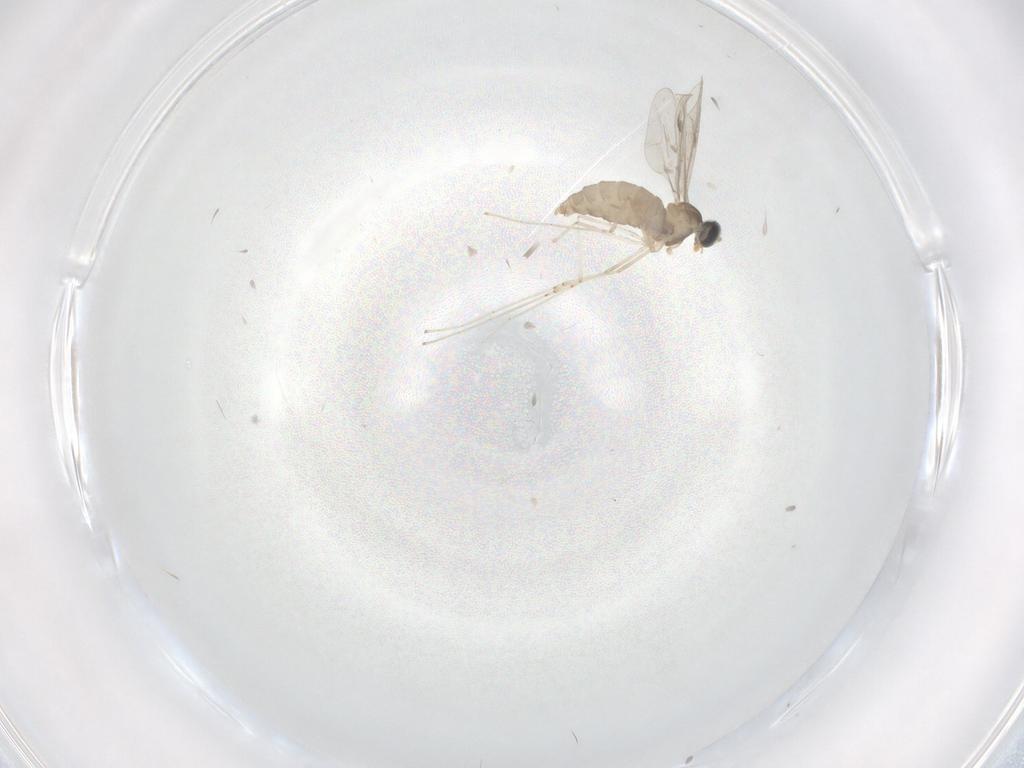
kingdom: Animalia
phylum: Arthropoda
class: Insecta
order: Diptera
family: Cecidomyiidae
